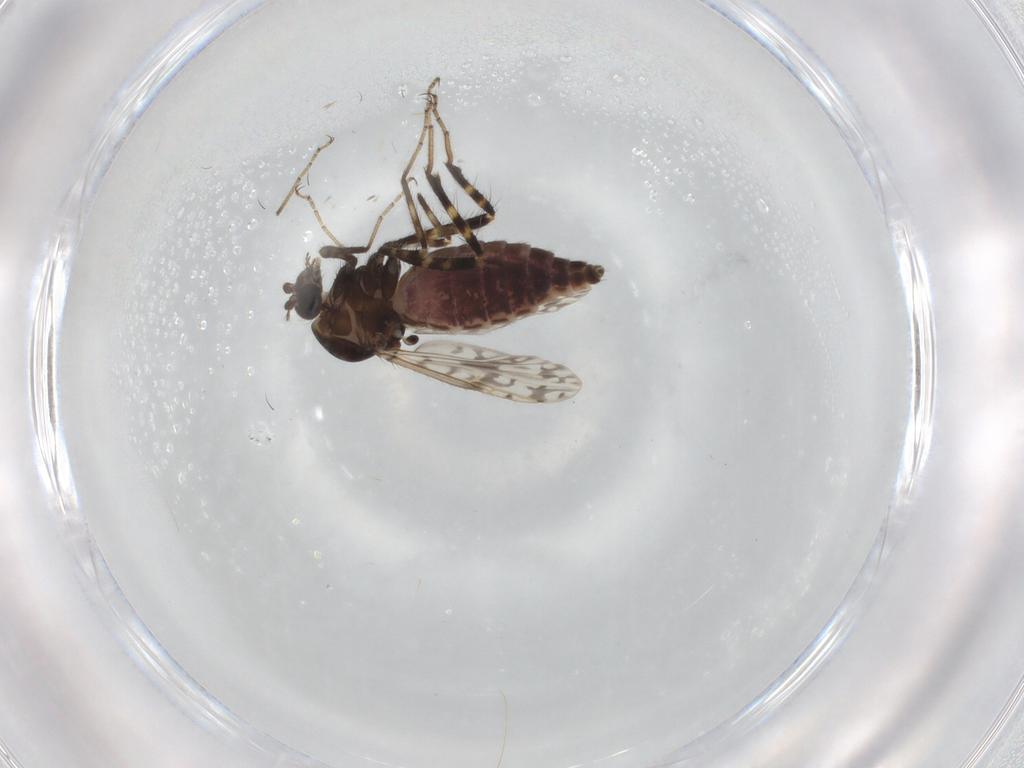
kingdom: Animalia
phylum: Arthropoda
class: Insecta
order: Diptera
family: Ceratopogonidae
